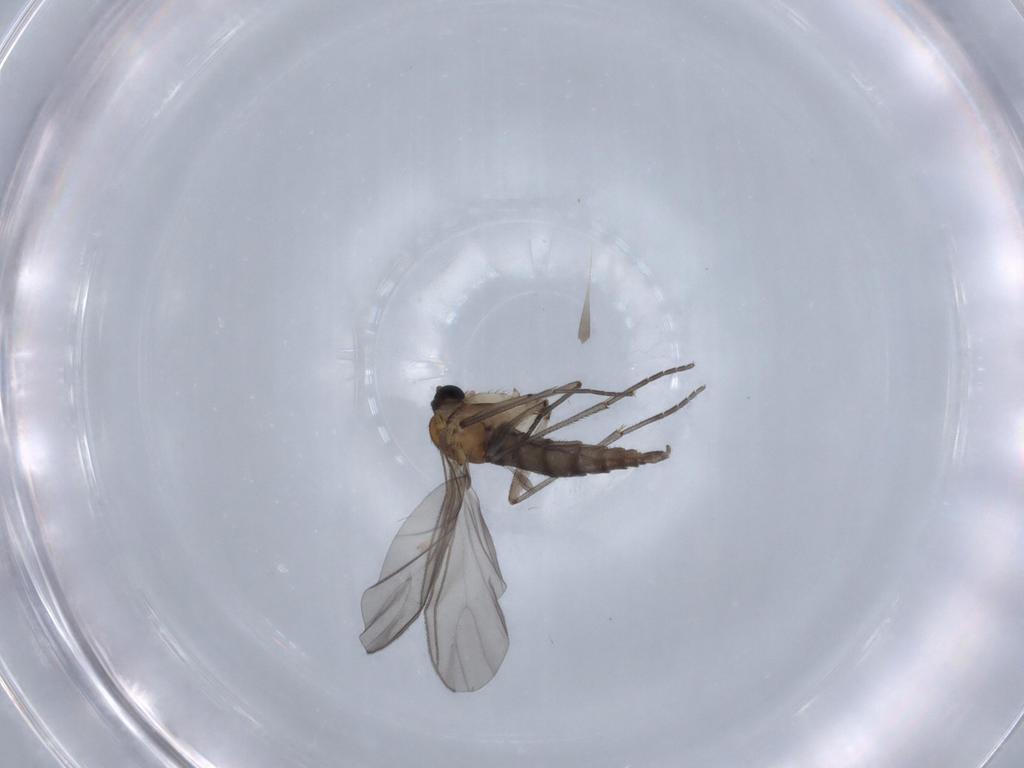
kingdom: Animalia
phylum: Arthropoda
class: Insecta
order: Diptera
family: Sciaridae
